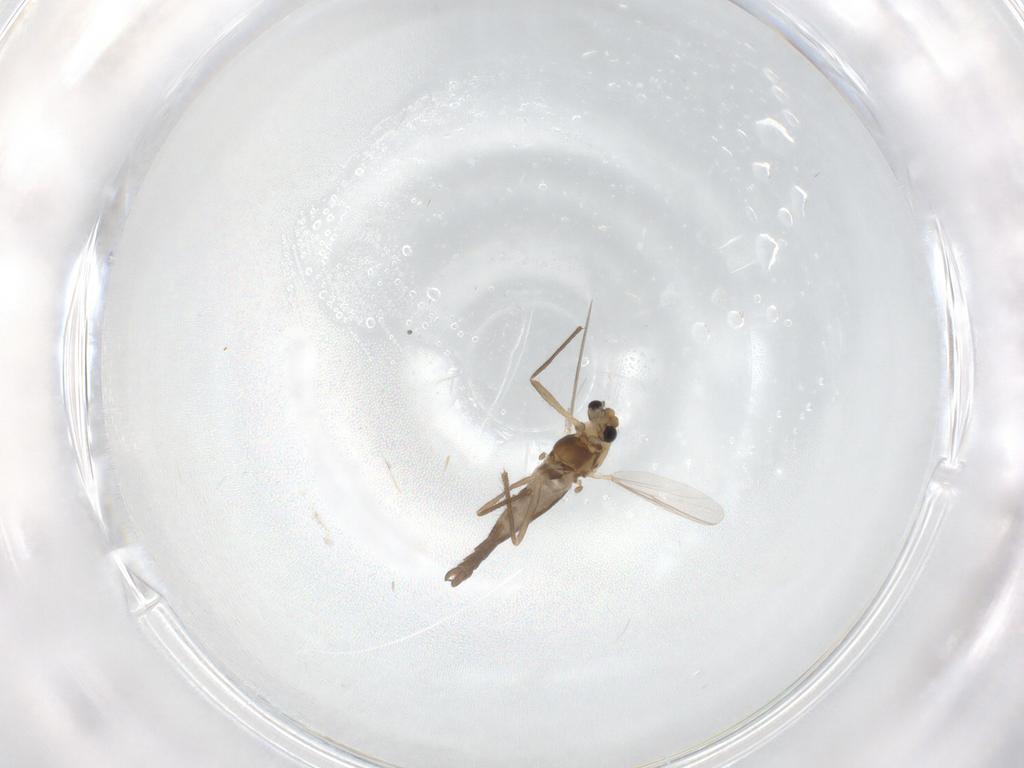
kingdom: Animalia
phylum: Arthropoda
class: Insecta
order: Diptera
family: Chironomidae
